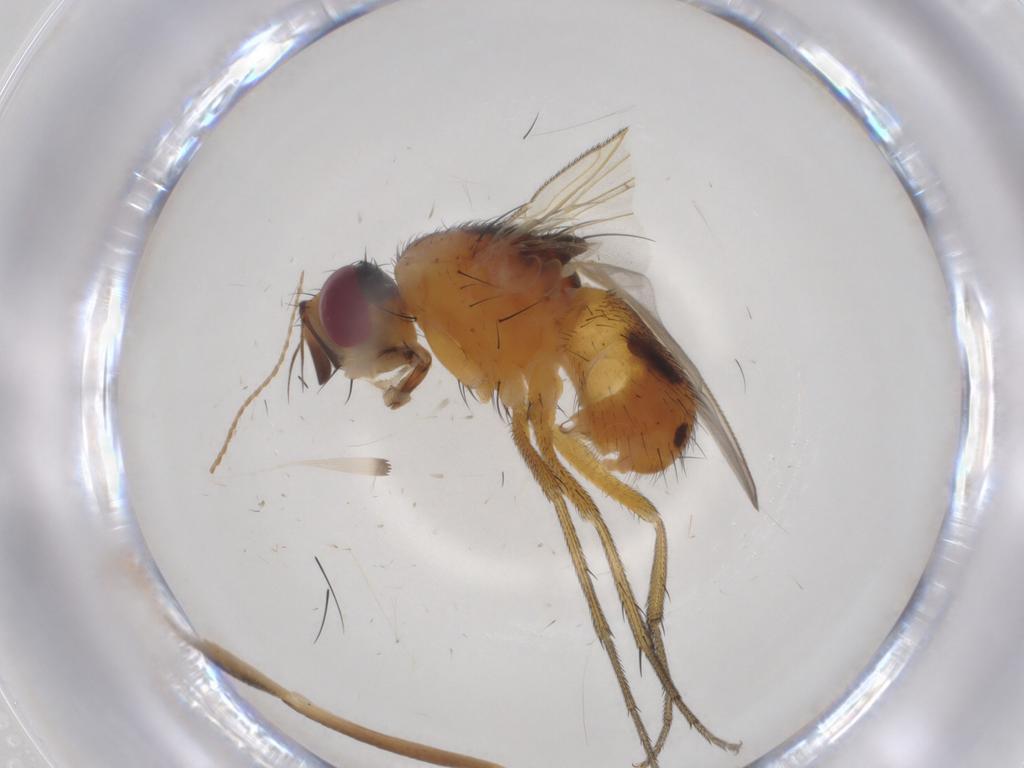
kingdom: Animalia
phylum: Arthropoda
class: Insecta
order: Diptera
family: Muscidae
